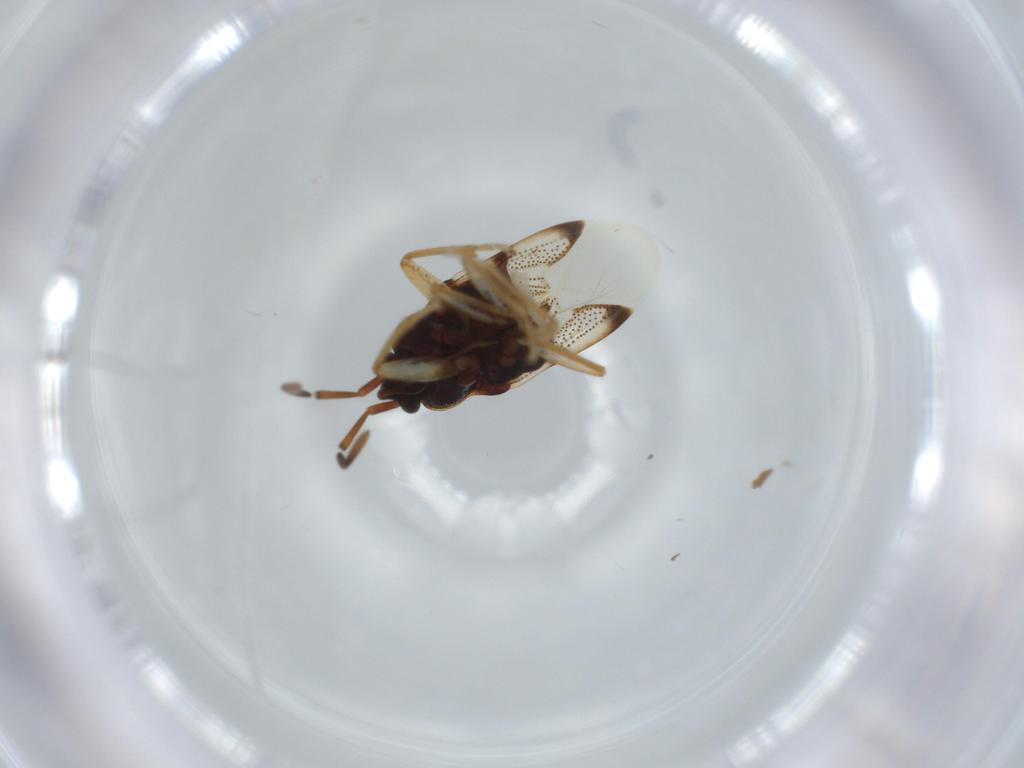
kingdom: Animalia
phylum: Arthropoda
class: Insecta
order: Hemiptera
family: Rhyparochromidae
